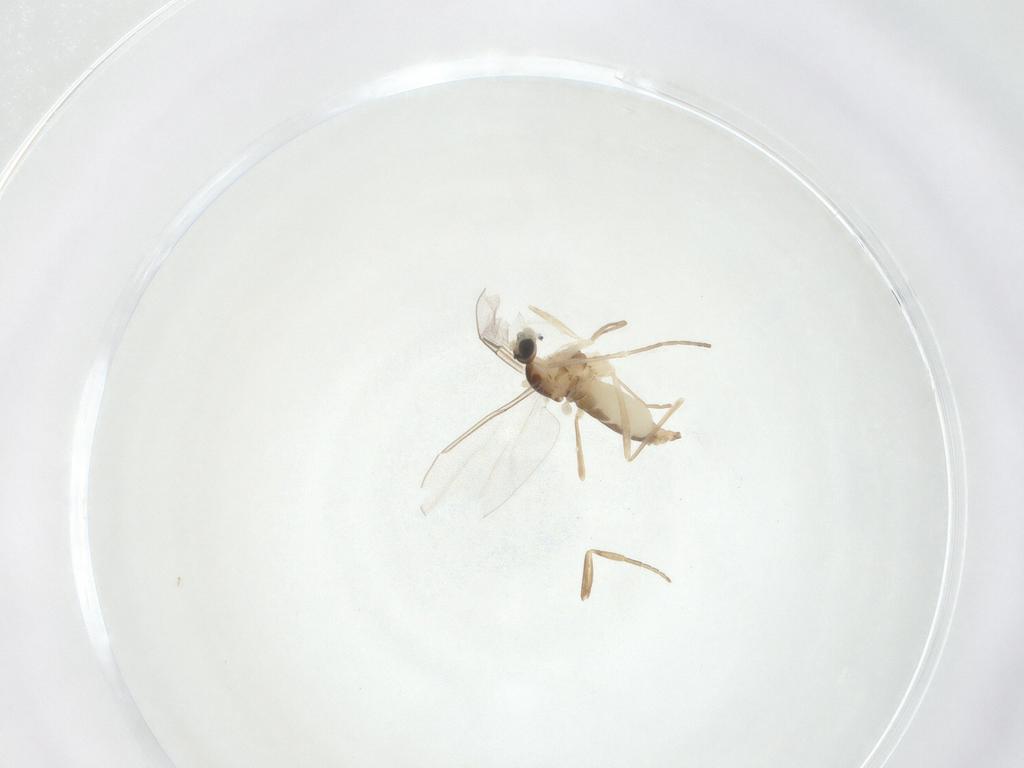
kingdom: Animalia
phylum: Arthropoda
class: Insecta
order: Diptera
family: Phoridae
